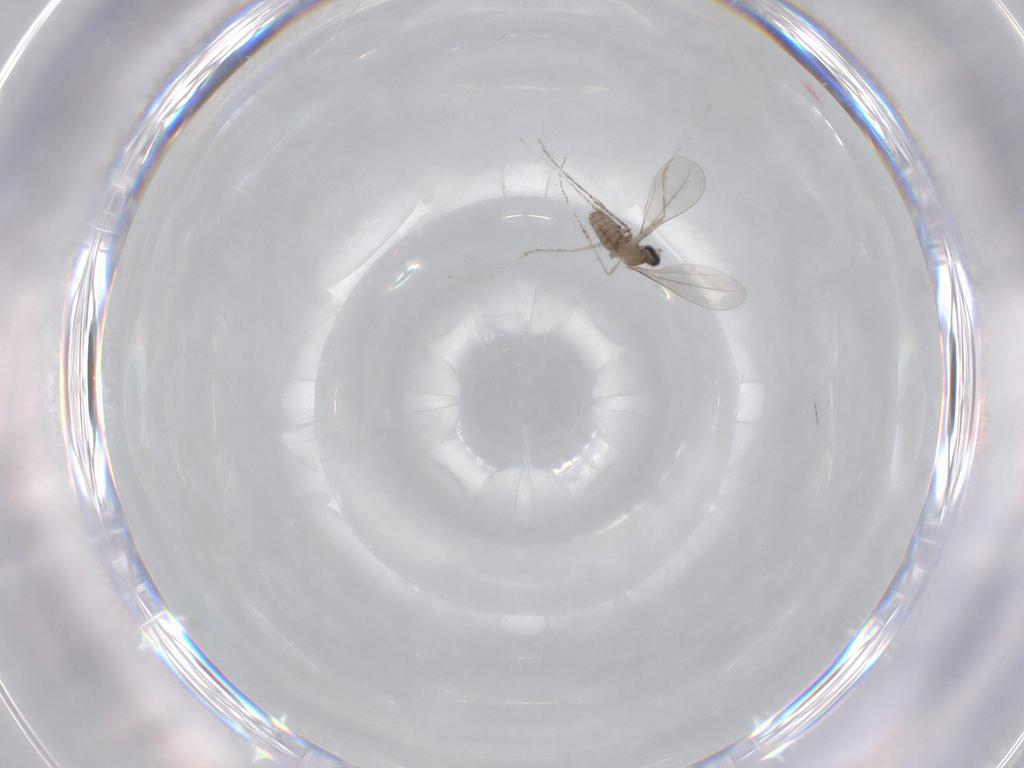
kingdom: Animalia
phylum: Arthropoda
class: Insecta
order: Diptera
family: Cecidomyiidae
